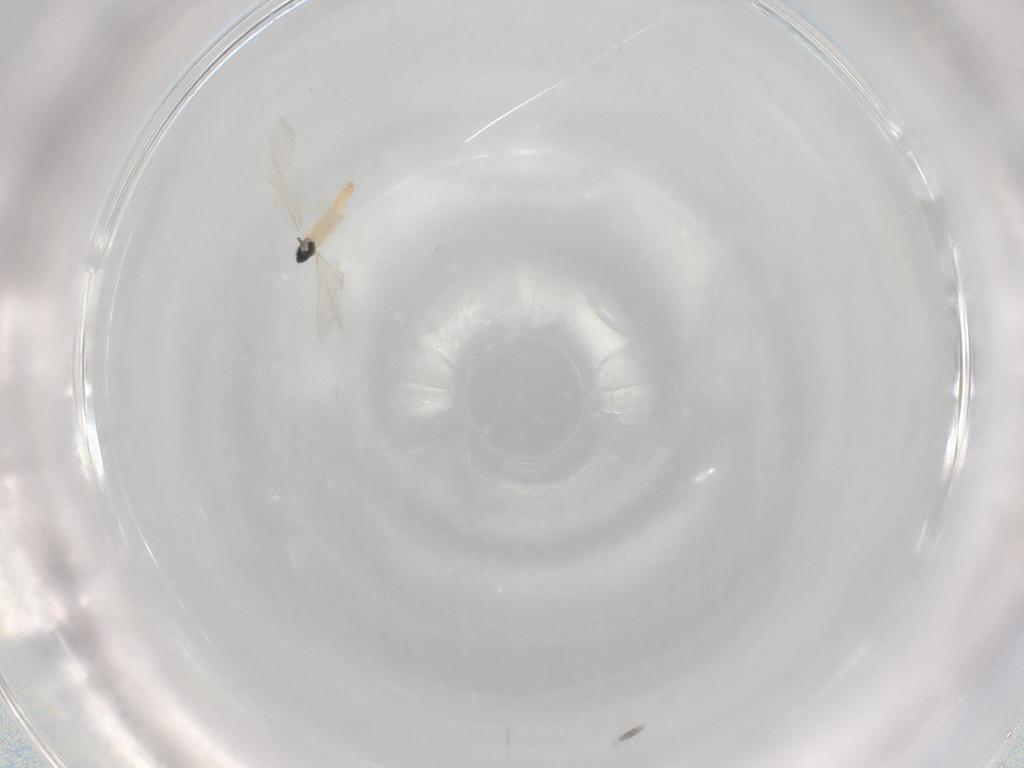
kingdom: Animalia
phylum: Arthropoda
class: Insecta
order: Diptera
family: Cecidomyiidae
